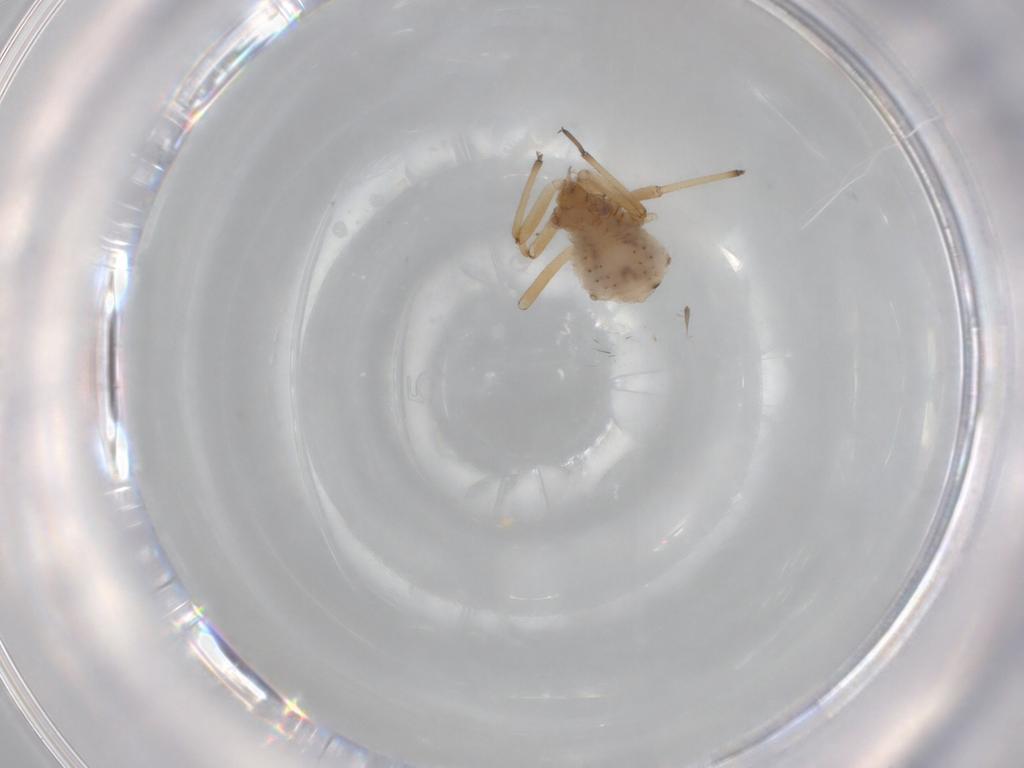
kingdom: Animalia
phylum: Arthropoda
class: Insecta
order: Hemiptera
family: Aphididae
